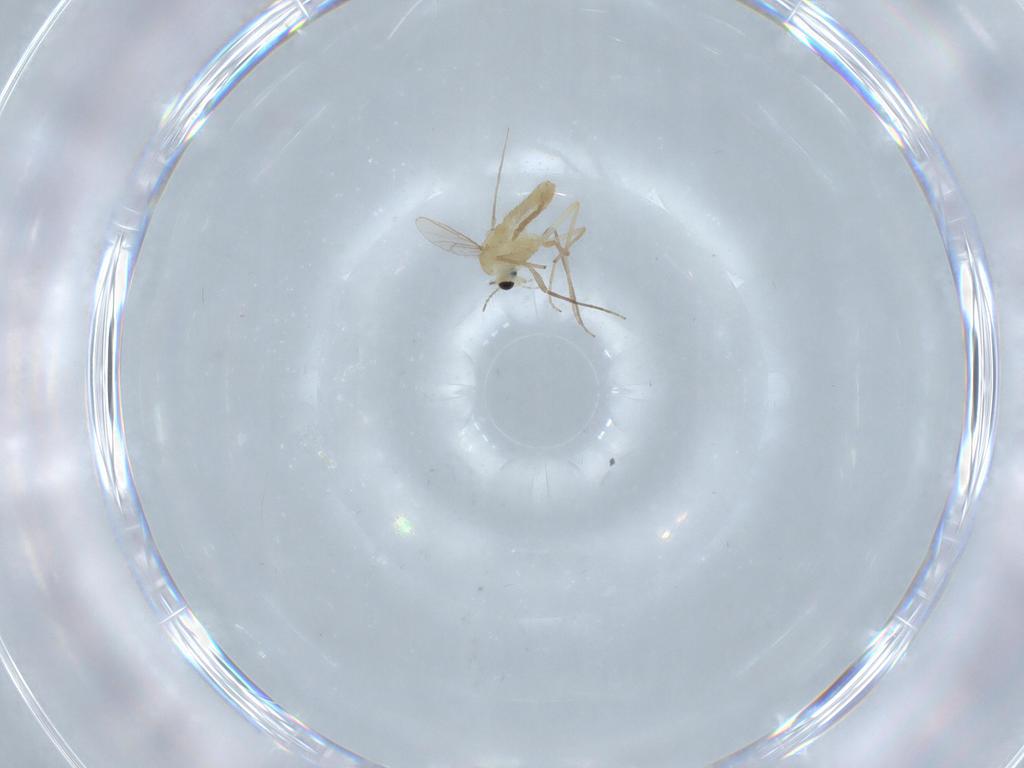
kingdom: Animalia
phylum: Arthropoda
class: Insecta
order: Diptera
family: Chironomidae
